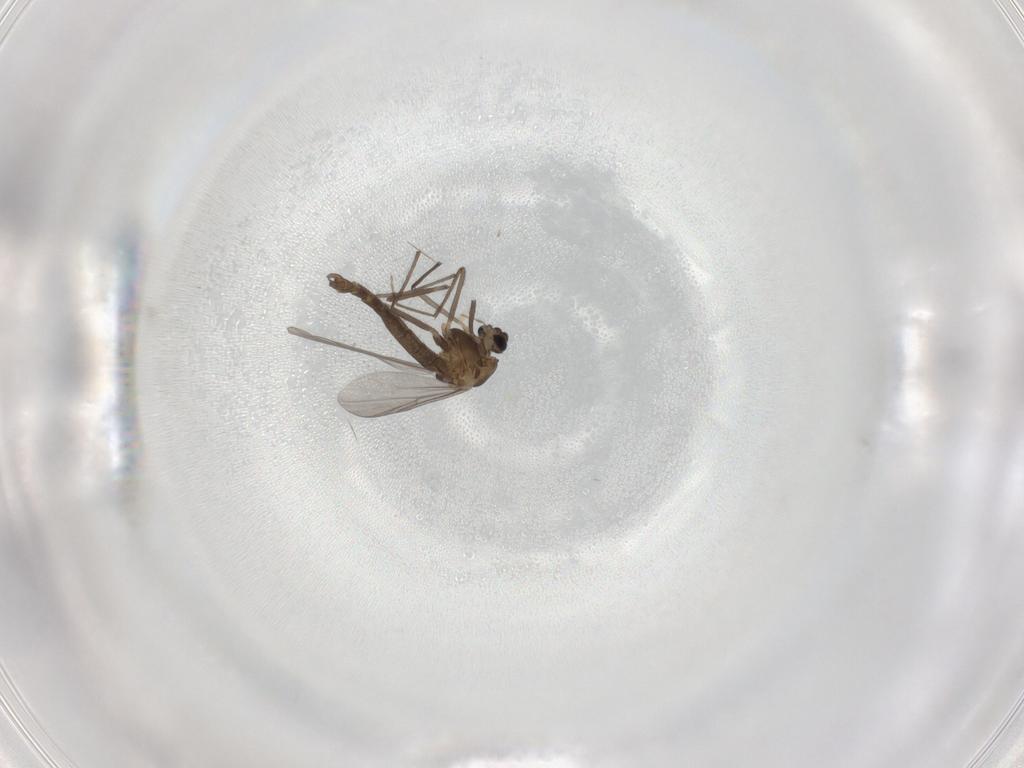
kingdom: Animalia
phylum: Arthropoda
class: Insecta
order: Diptera
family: Chironomidae
